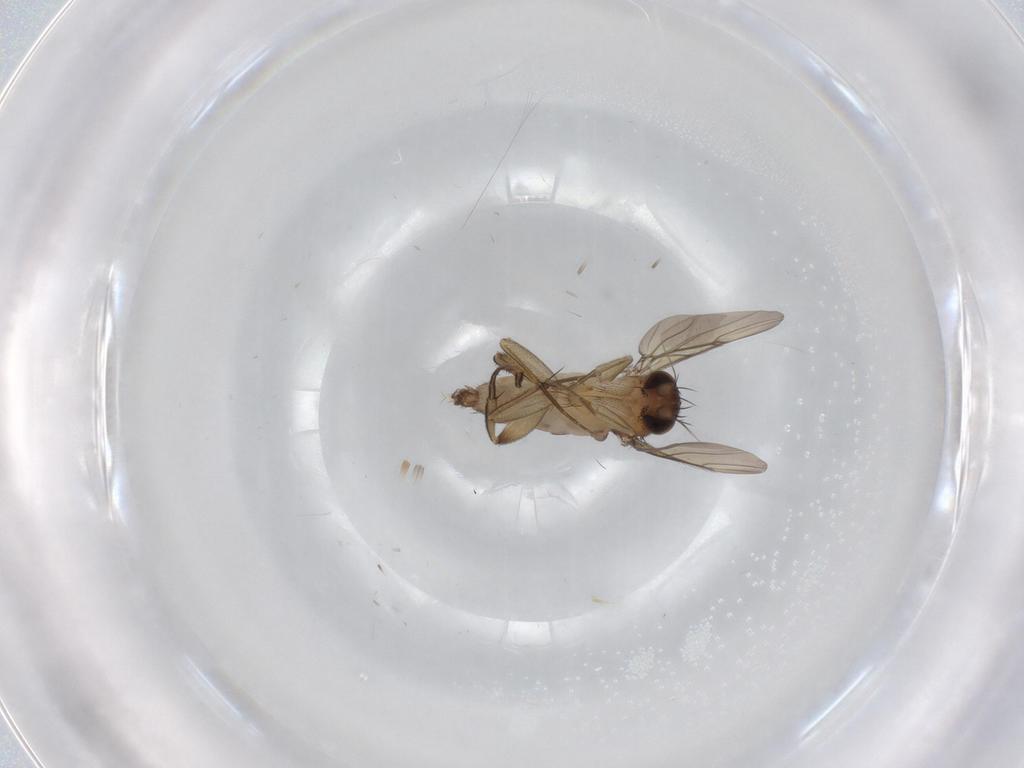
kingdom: Animalia
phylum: Arthropoda
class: Insecta
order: Diptera
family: Phoridae
